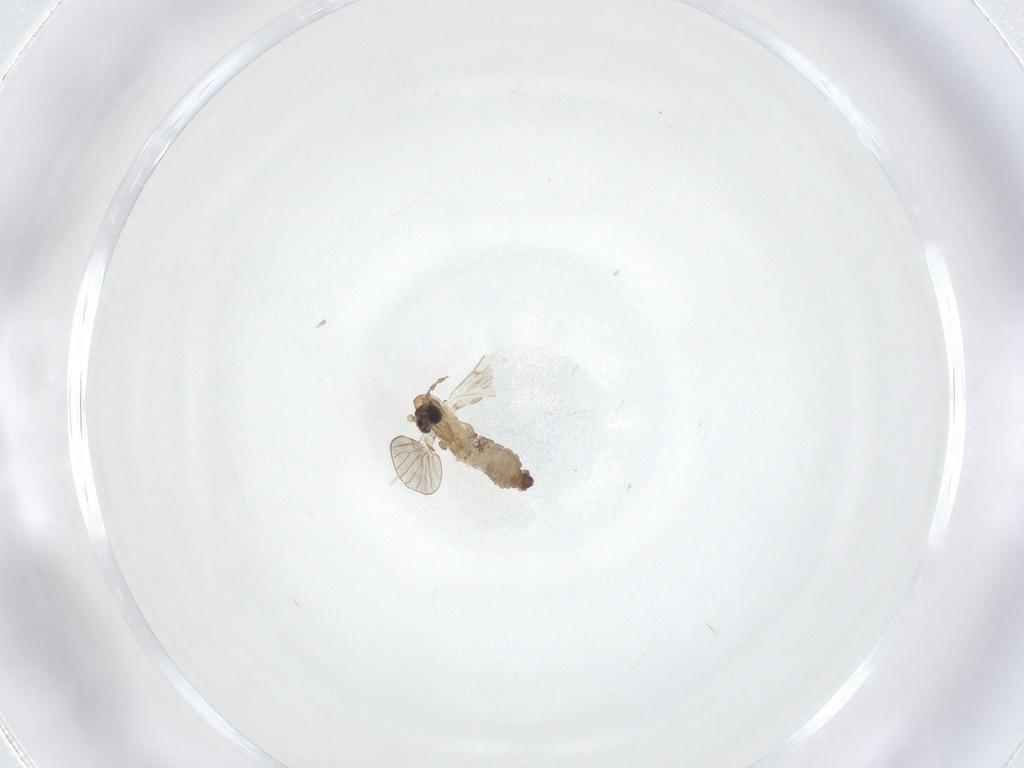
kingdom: Animalia
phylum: Arthropoda
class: Insecta
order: Diptera
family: Psychodidae
